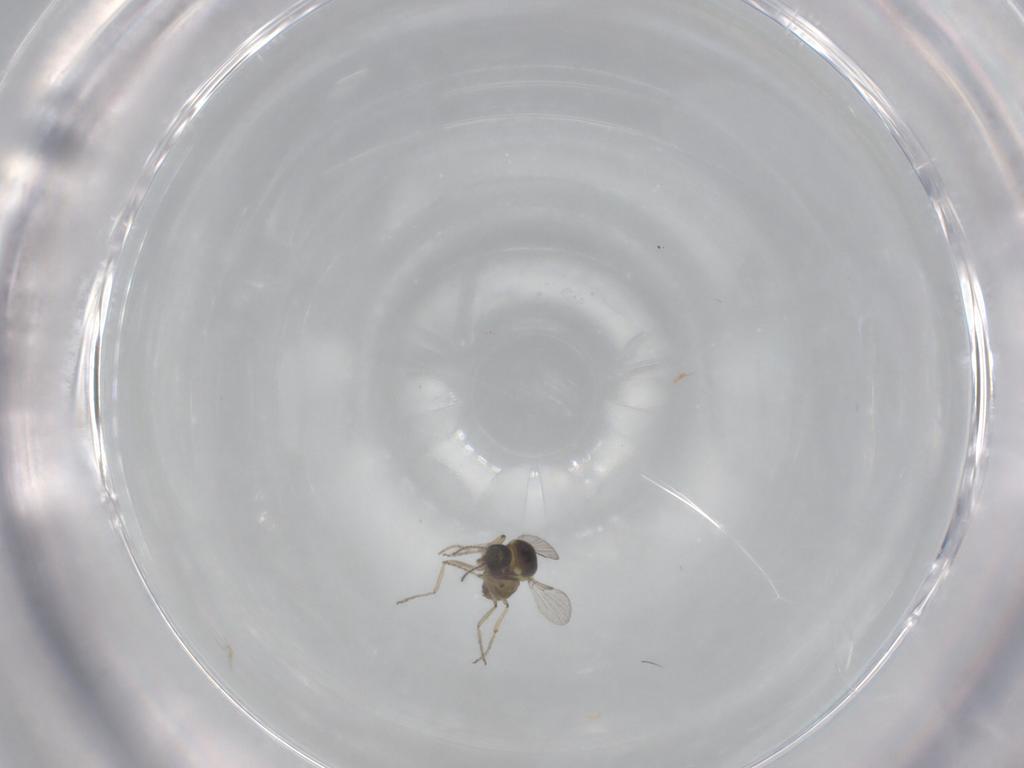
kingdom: Animalia
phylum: Arthropoda
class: Insecta
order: Diptera
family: Ceratopogonidae
